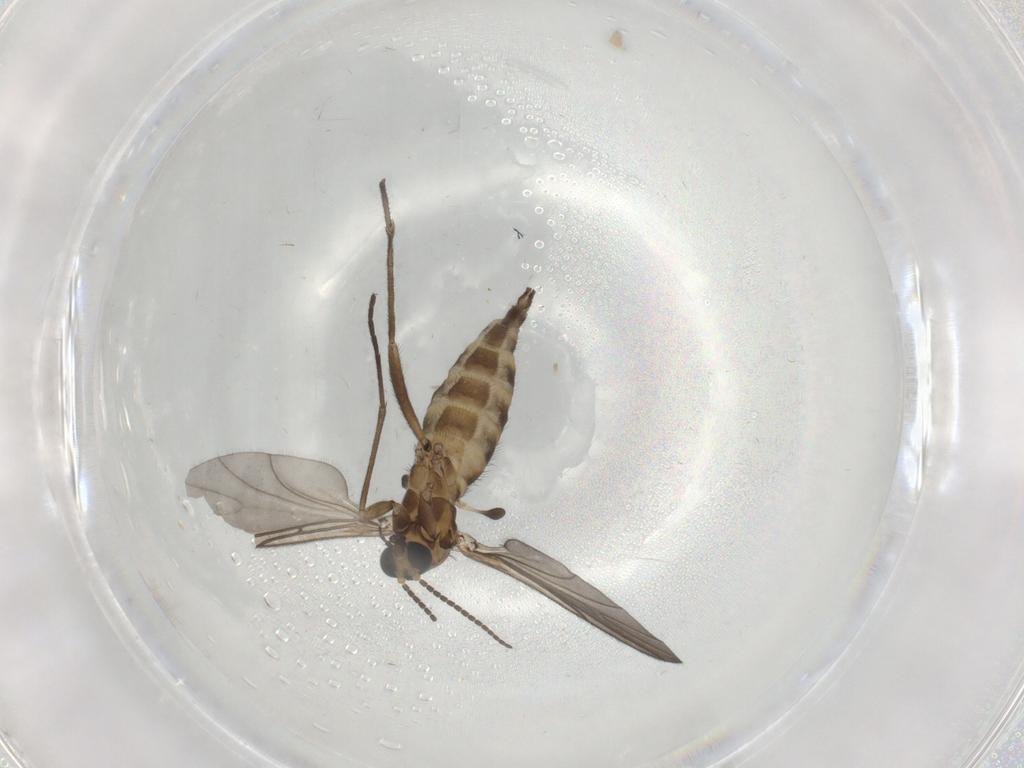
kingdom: Animalia
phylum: Arthropoda
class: Insecta
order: Diptera
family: Sciaridae
